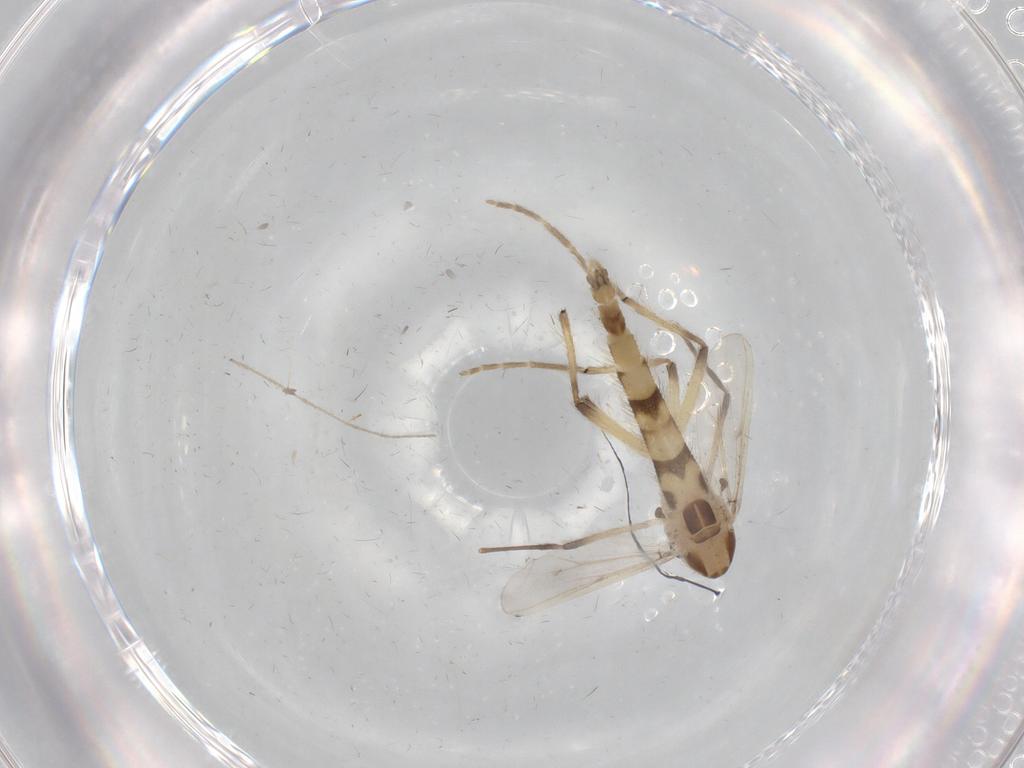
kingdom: Animalia
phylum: Arthropoda
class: Insecta
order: Diptera
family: Chironomidae
